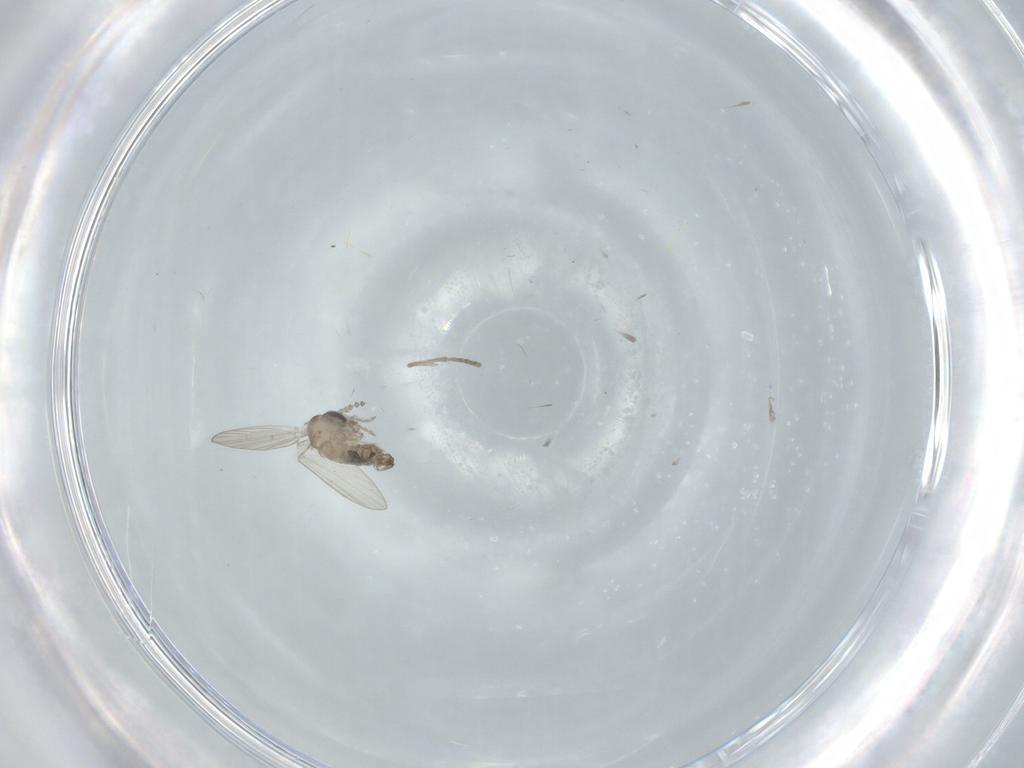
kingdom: Animalia
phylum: Arthropoda
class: Insecta
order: Diptera
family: Psychodidae
